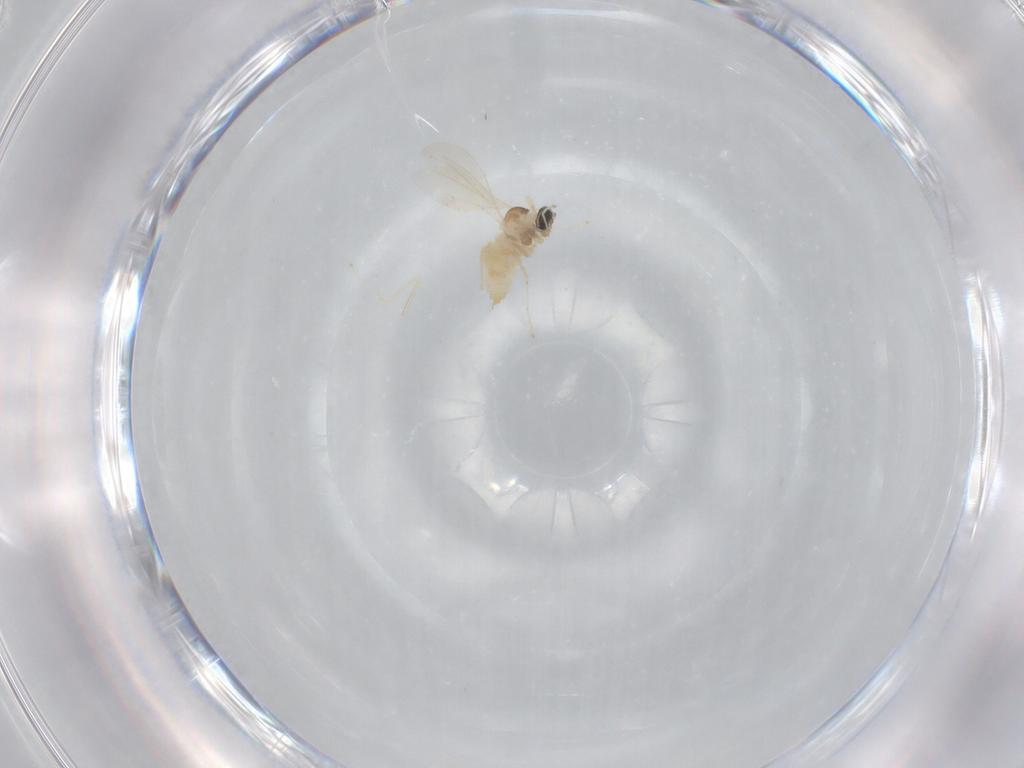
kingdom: Animalia
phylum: Arthropoda
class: Insecta
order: Diptera
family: Cecidomyiidae
